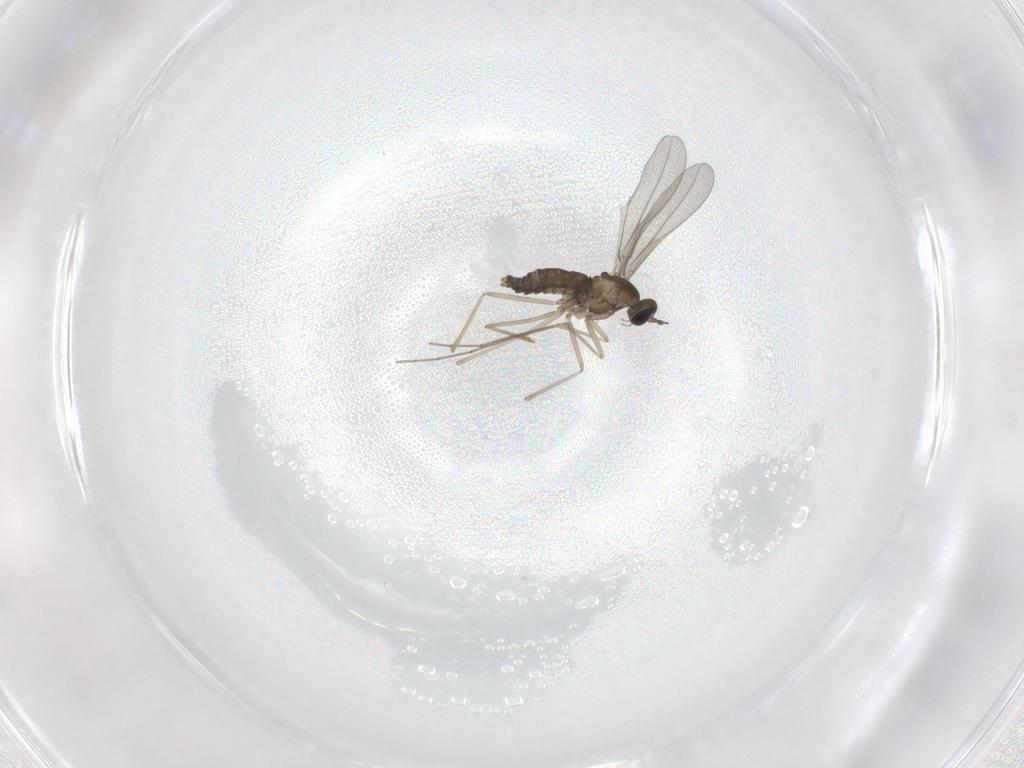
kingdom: Animalia
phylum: Arthropoda
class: Insecta
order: Diptera
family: Cecidomyiidae
